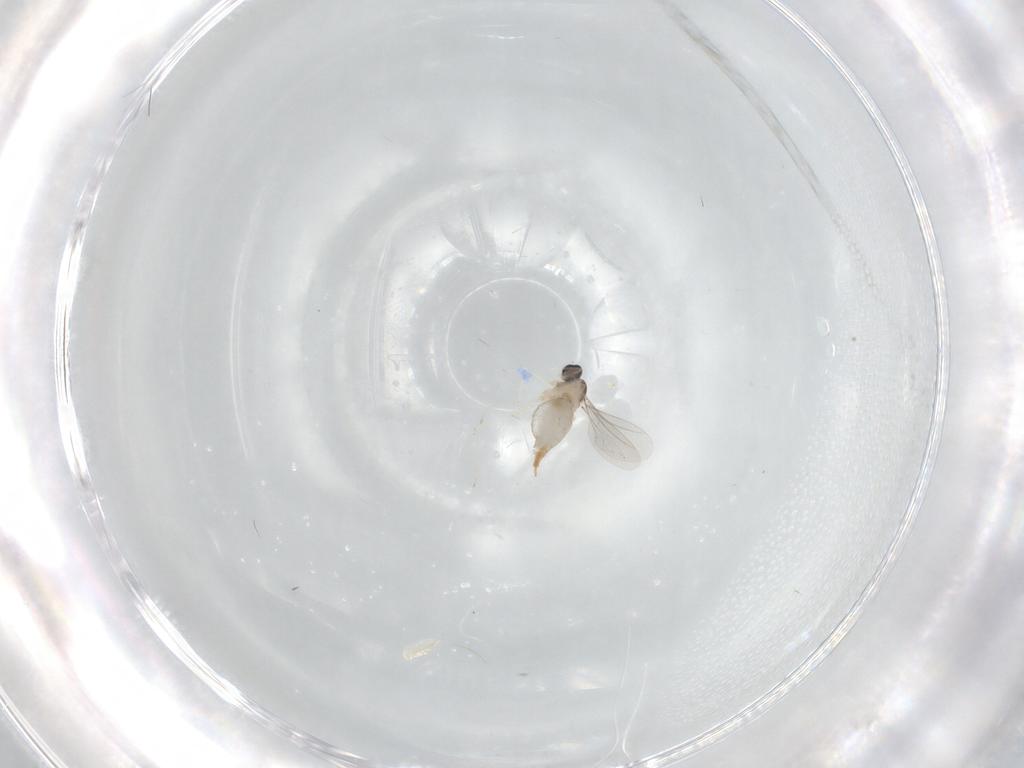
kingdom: Animalia
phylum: Arthropoda
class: Insecta
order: Diptera
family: Cecidomyiidae
